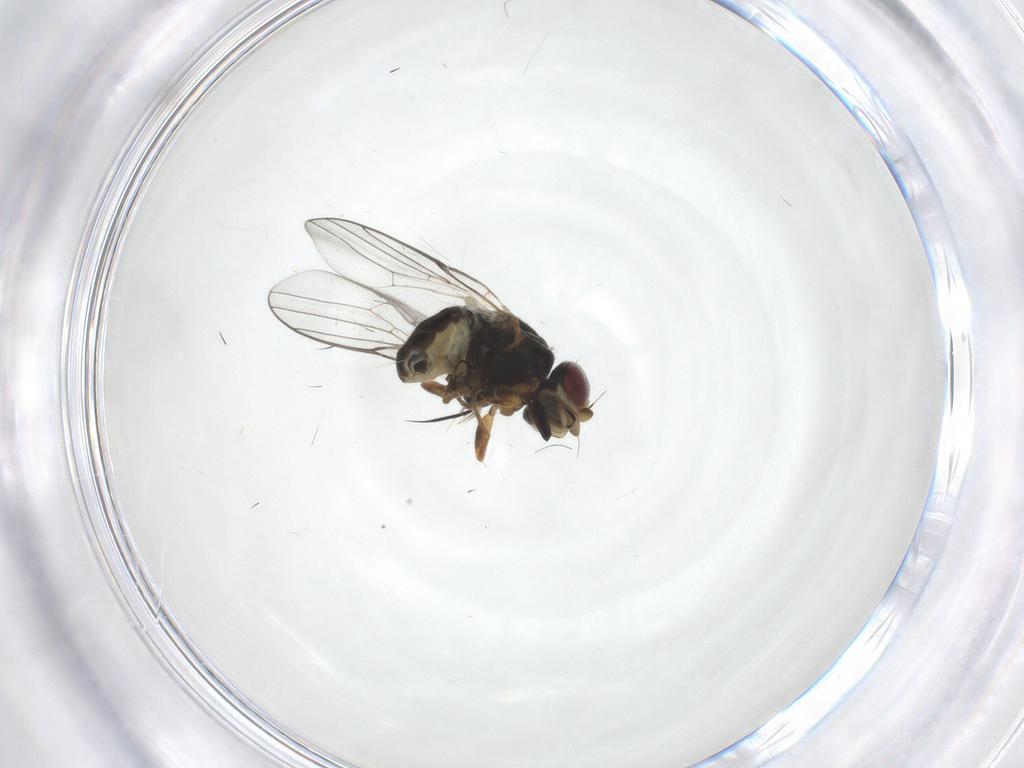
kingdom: Animalia
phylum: Arthropoda
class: Insecta
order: Diptera
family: Chloropidae
